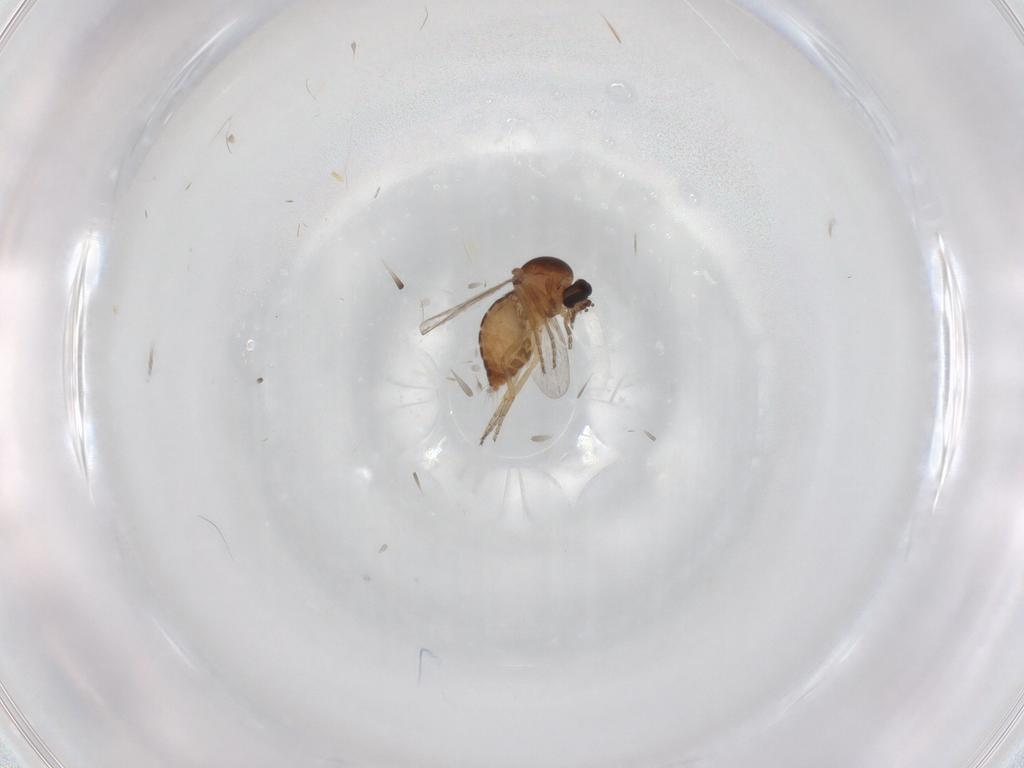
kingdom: Animalia
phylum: Arthropoda
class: Insecta
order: Diptera
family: Ceratopogonidae
